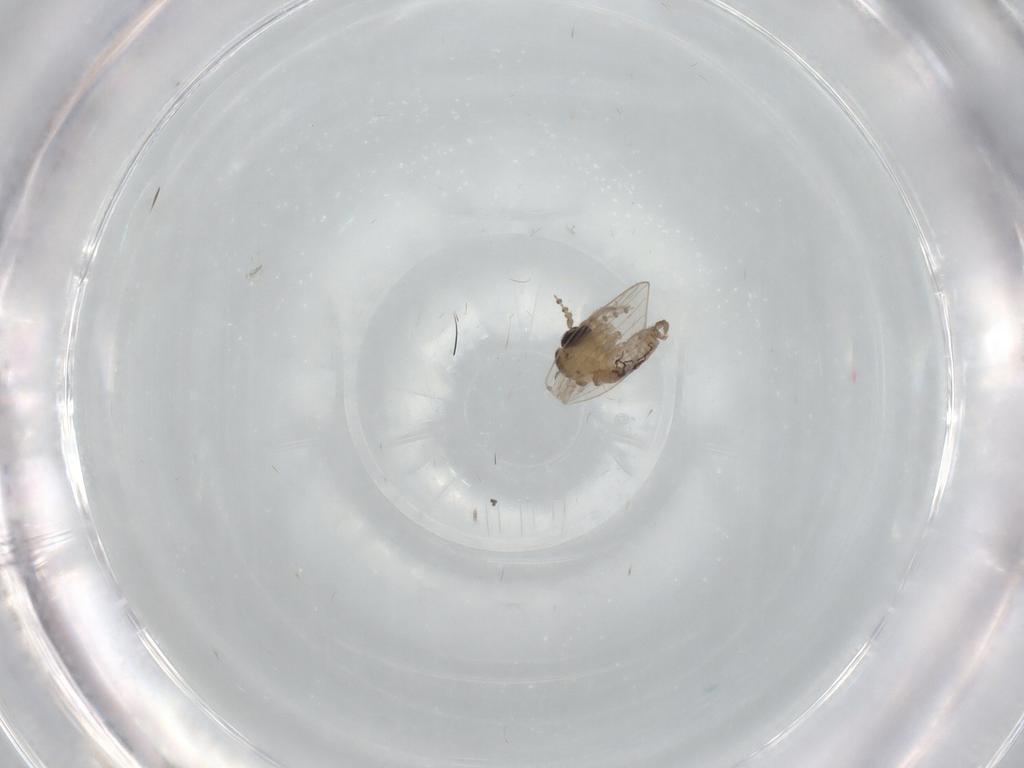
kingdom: Animalia
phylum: Arthropoda
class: Insecta
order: Diptera
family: Psychodidae
